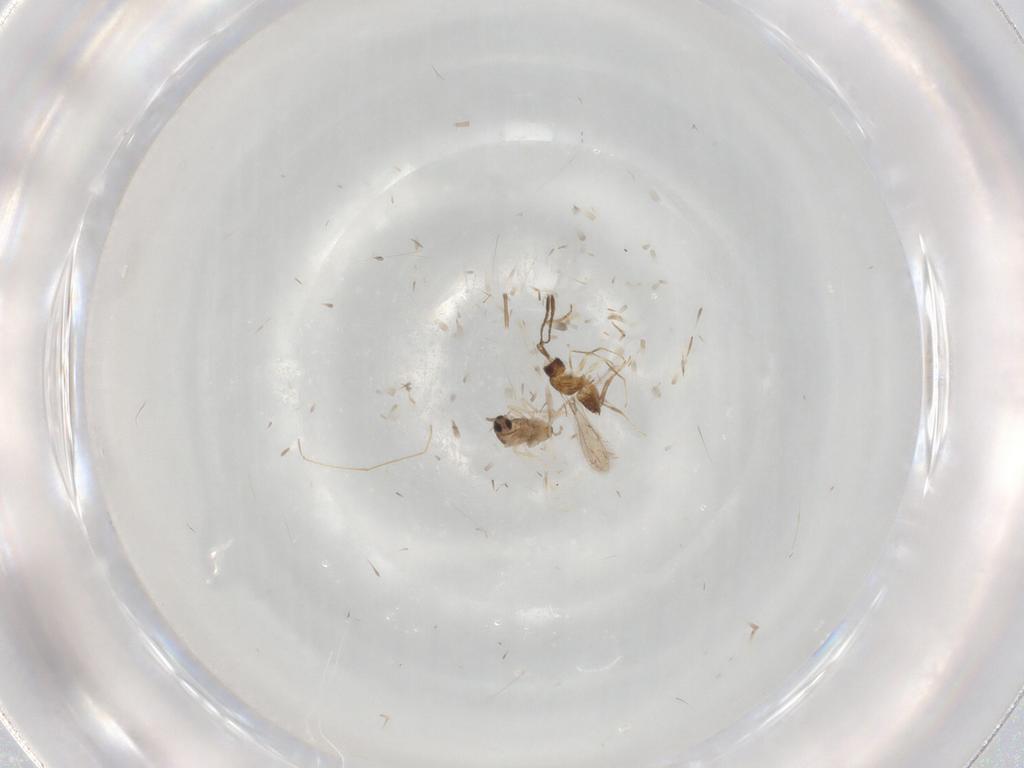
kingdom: Animalia
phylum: Arthropoda
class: Insecta
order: Hymenoptera
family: Mymaridae
